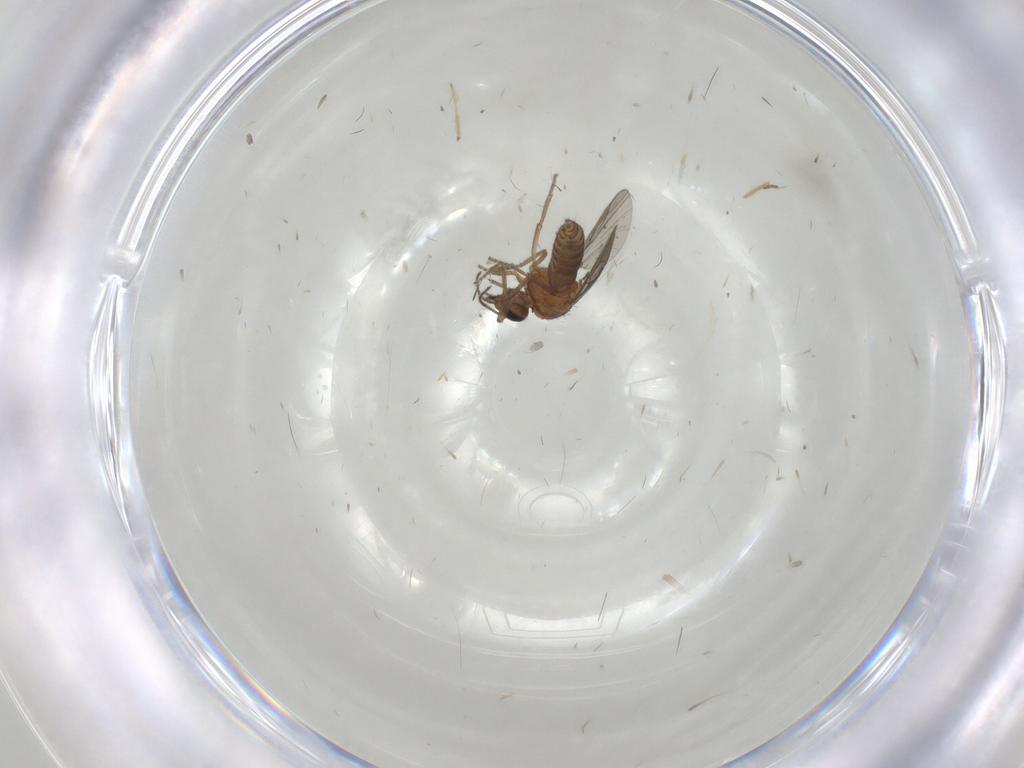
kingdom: Animalia
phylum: Arthropoda
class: Insecta
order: Diptera
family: Ceratopogonidae
